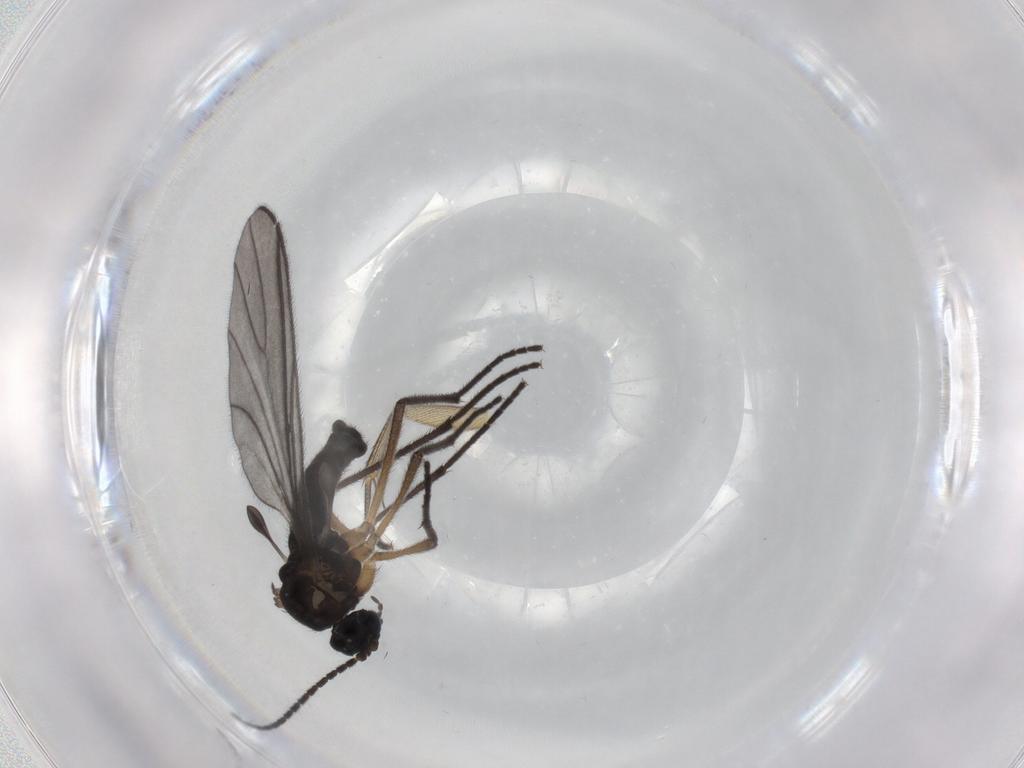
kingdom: Animalia
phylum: Arthropoda
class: Insecta
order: Diptera
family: Sciaridae
